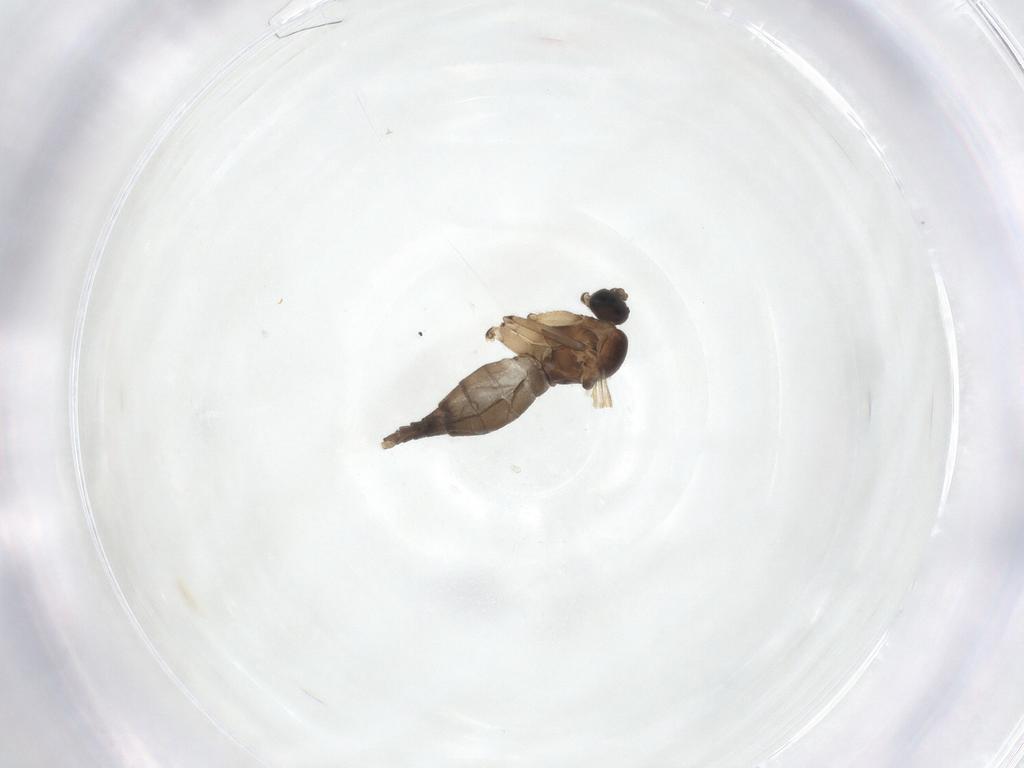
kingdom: Animalia
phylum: Arthropoda
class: Insecta
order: Diptera
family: Sciaridae
